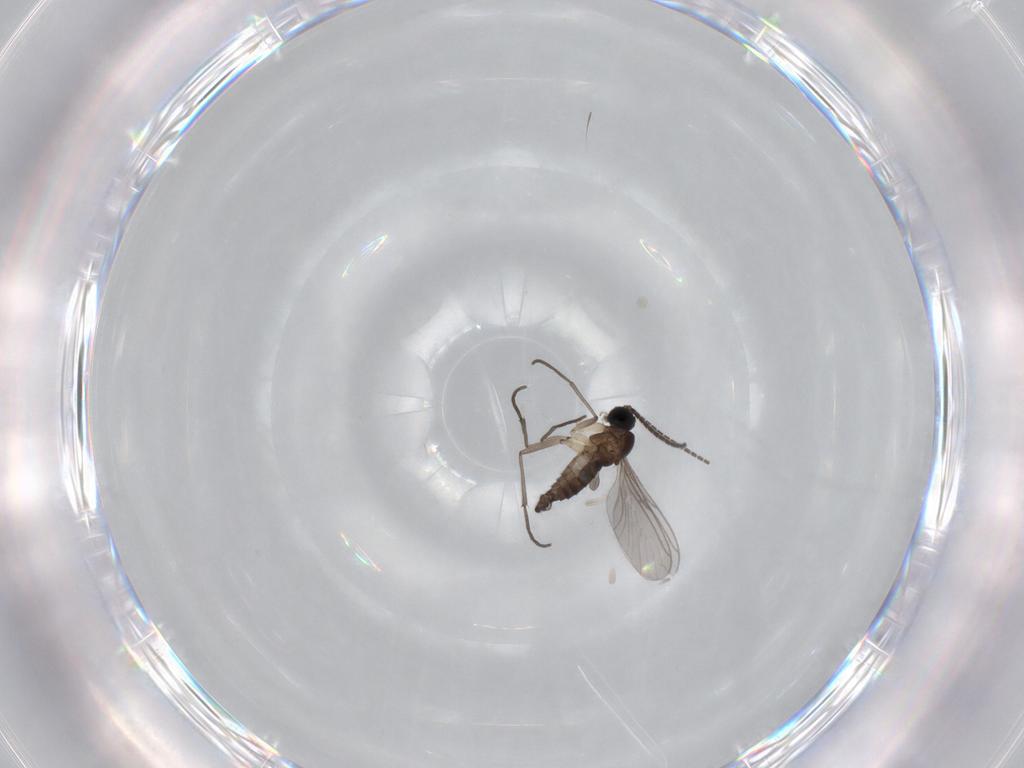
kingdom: Animalia
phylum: Arthropoda
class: Insecta
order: Diptera
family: Sciaridae
